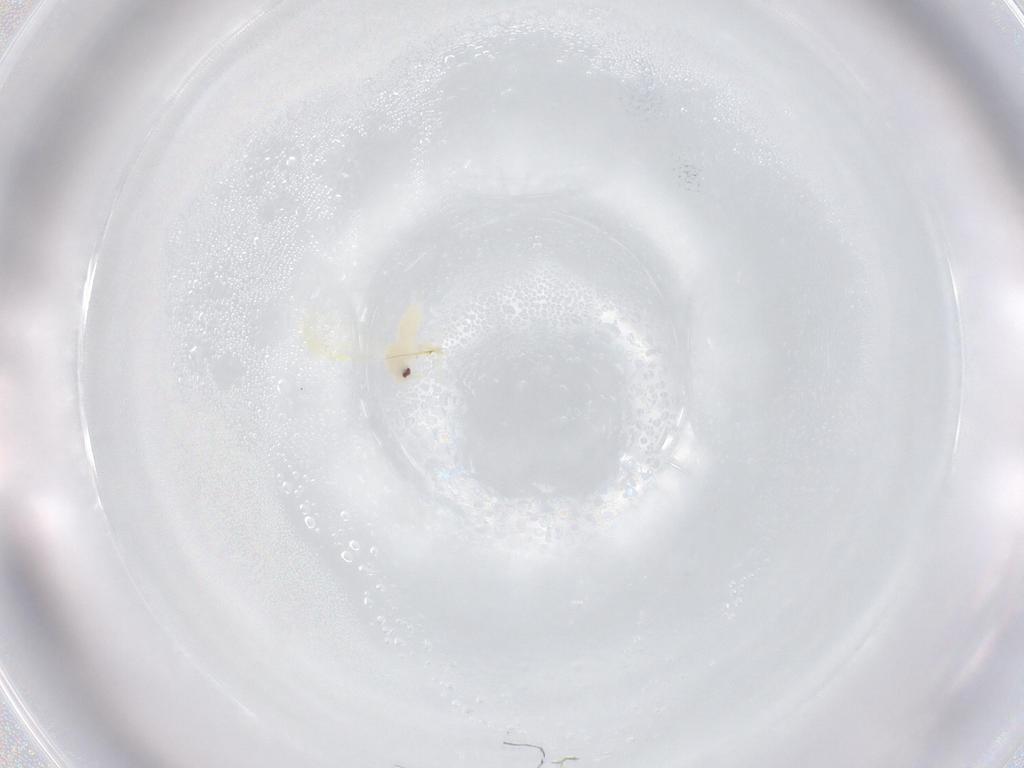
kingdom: Animalia
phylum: Arthropoda
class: Insecta
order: Hemiptera
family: Aleyrodidae
